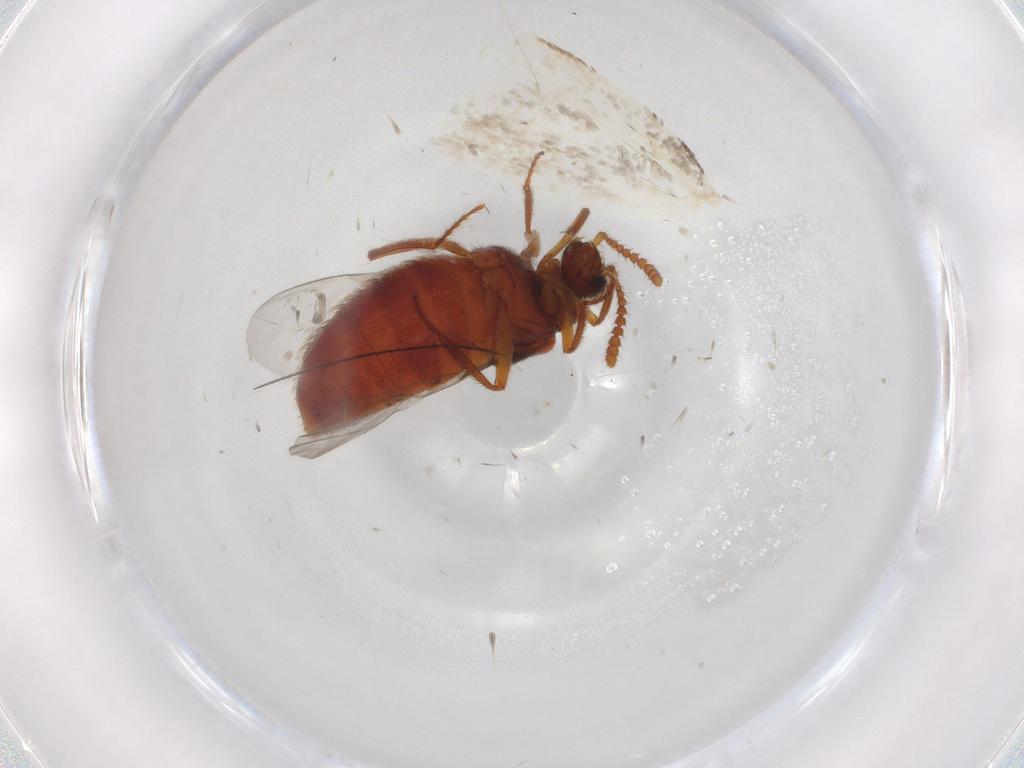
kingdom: Animalia
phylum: Arthropoda
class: Insecta
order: Coleoptera
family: Staphylinidae
